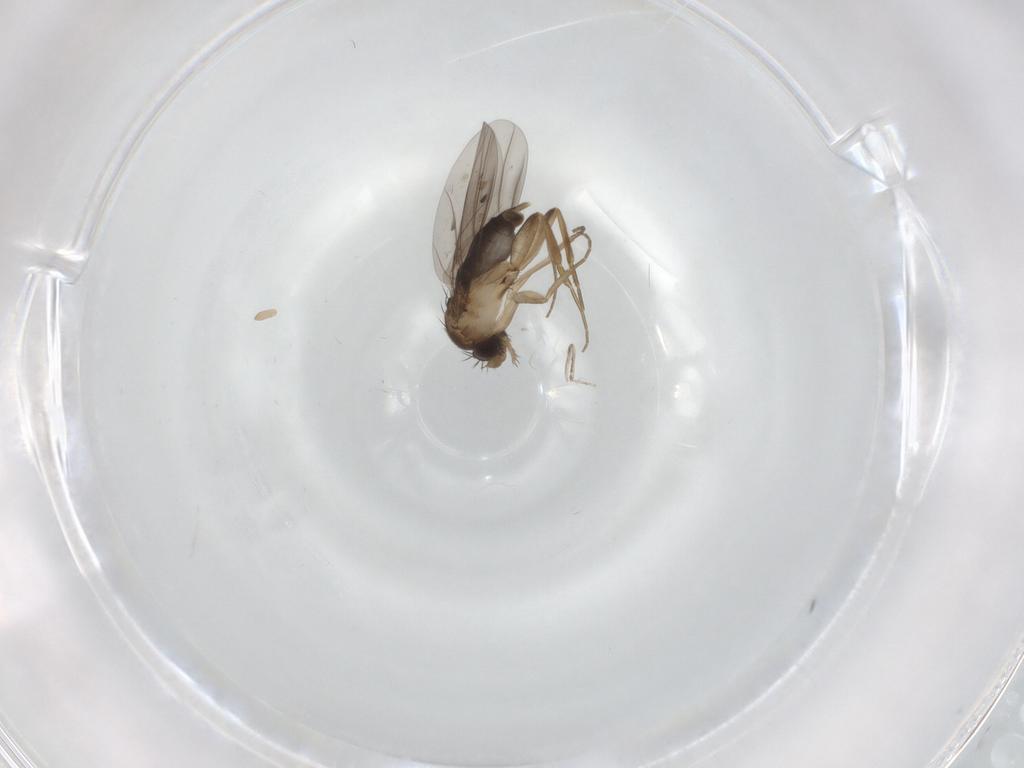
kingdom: Animalia
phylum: Arthropoda
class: Insecta
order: Diptera
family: Phoridae
